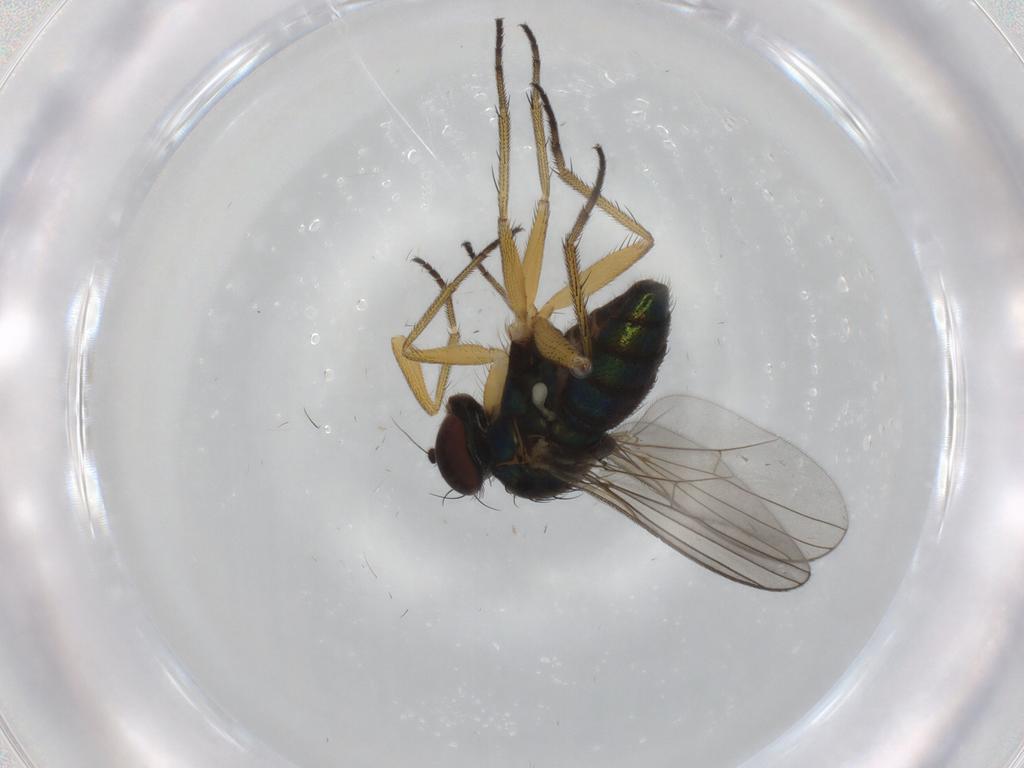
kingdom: Animalia
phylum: Arthropoda
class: Insecta
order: Diptera
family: Dolichopodidae
